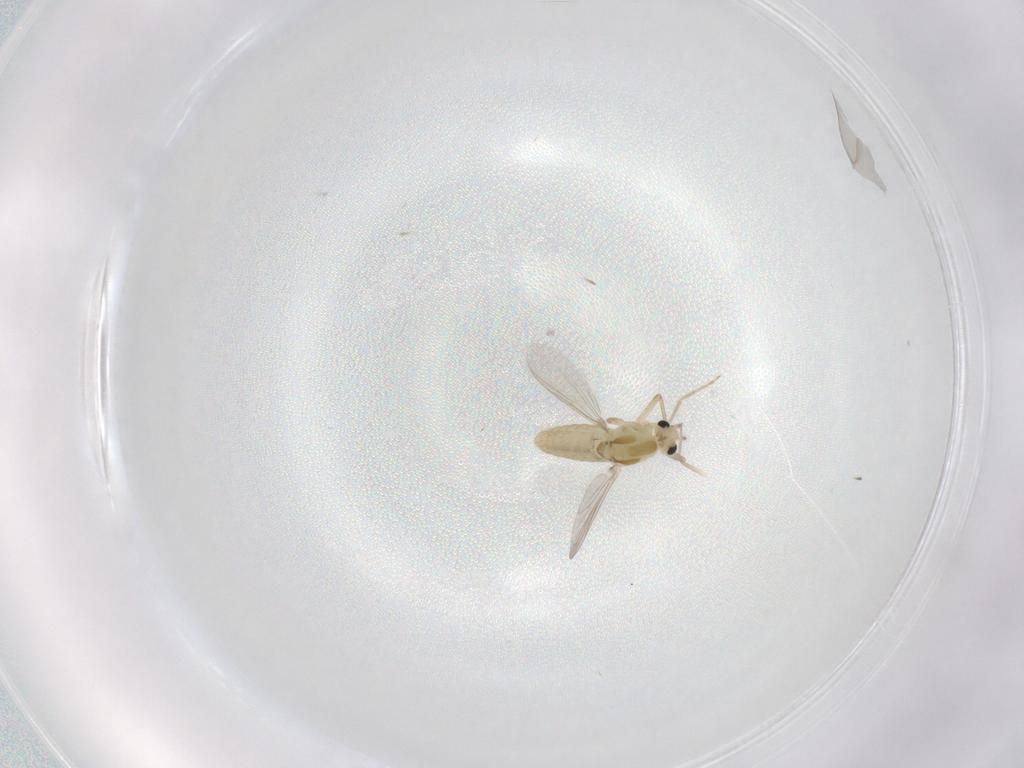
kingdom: Animalia
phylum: Arthropoda
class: Insecta
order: Diptera
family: Chironomidae
